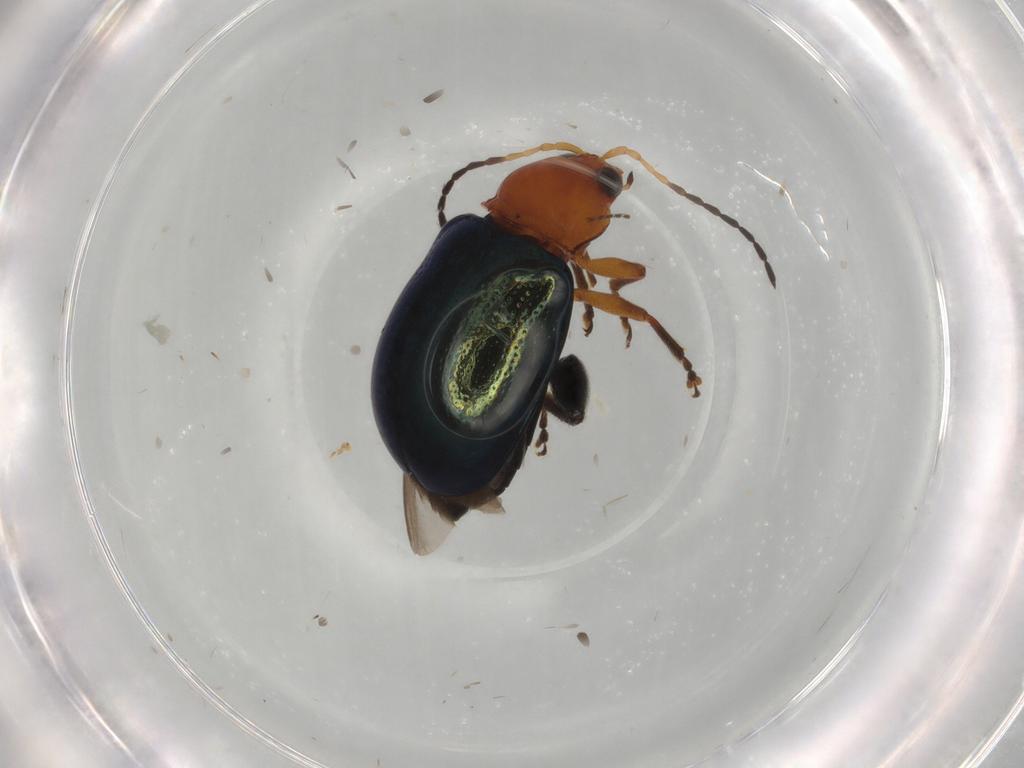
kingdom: Animalia
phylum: Arthropoda
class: Insecta
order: Coleoptera
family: Chrysomelidae
